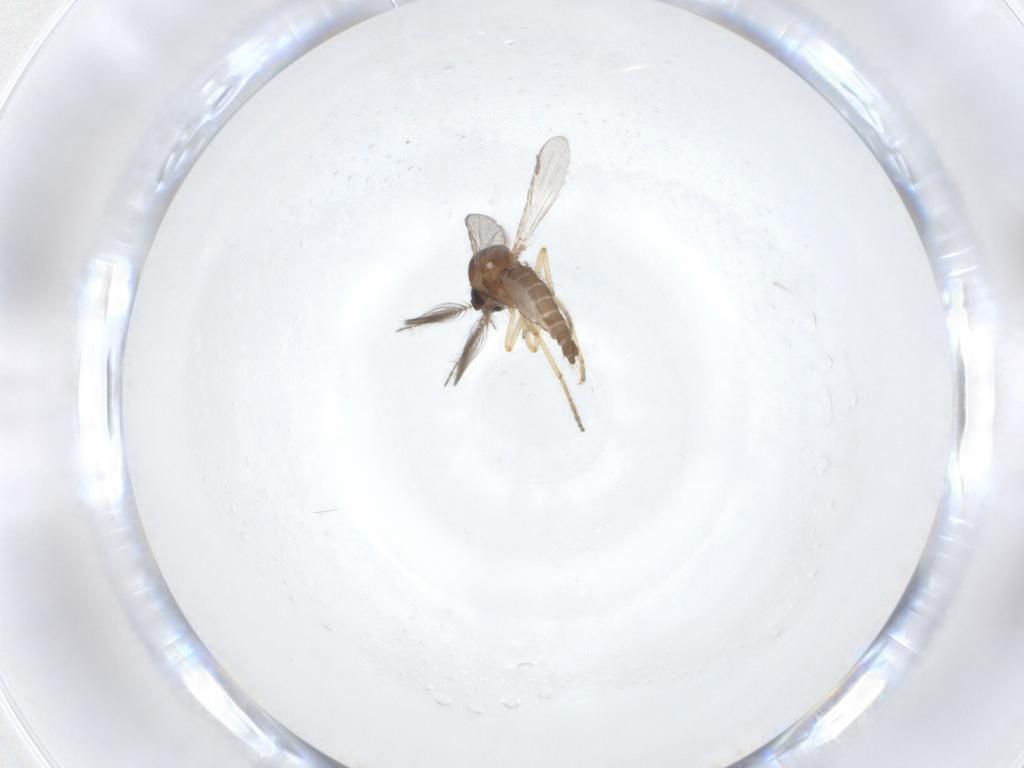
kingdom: Animalia
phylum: Arthropoda
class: Insecta
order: Diptera
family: Ceratopogonidae
